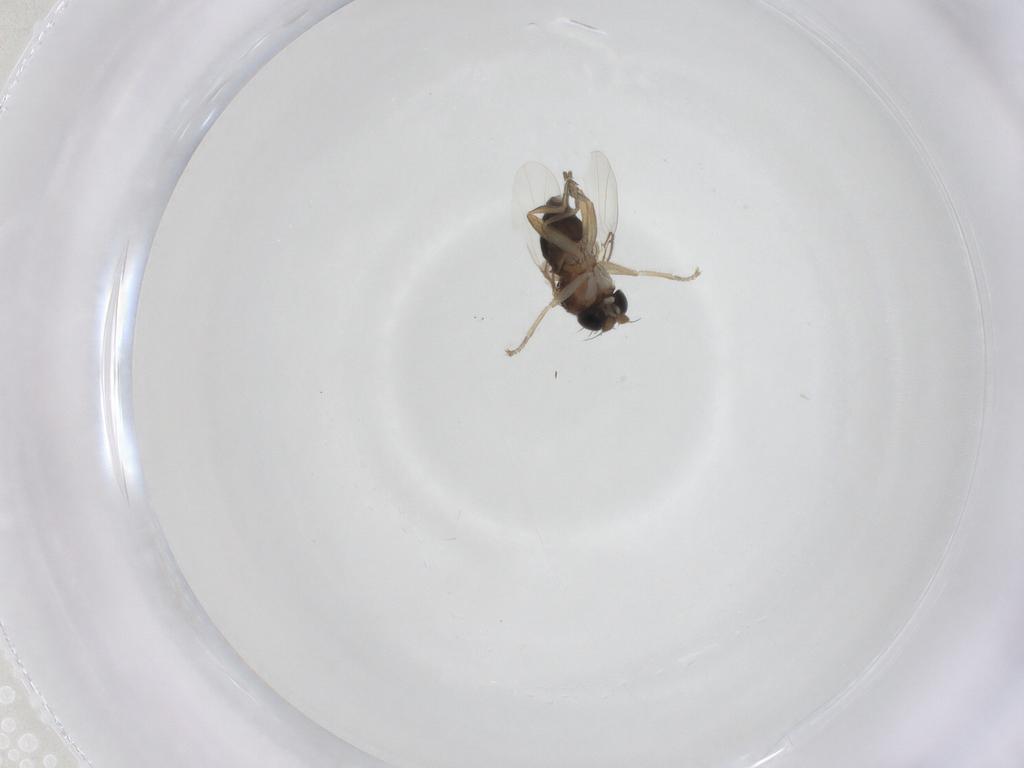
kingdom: Animalia
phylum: Arthropoda
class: Insecta
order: Diptera
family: Phoridae
